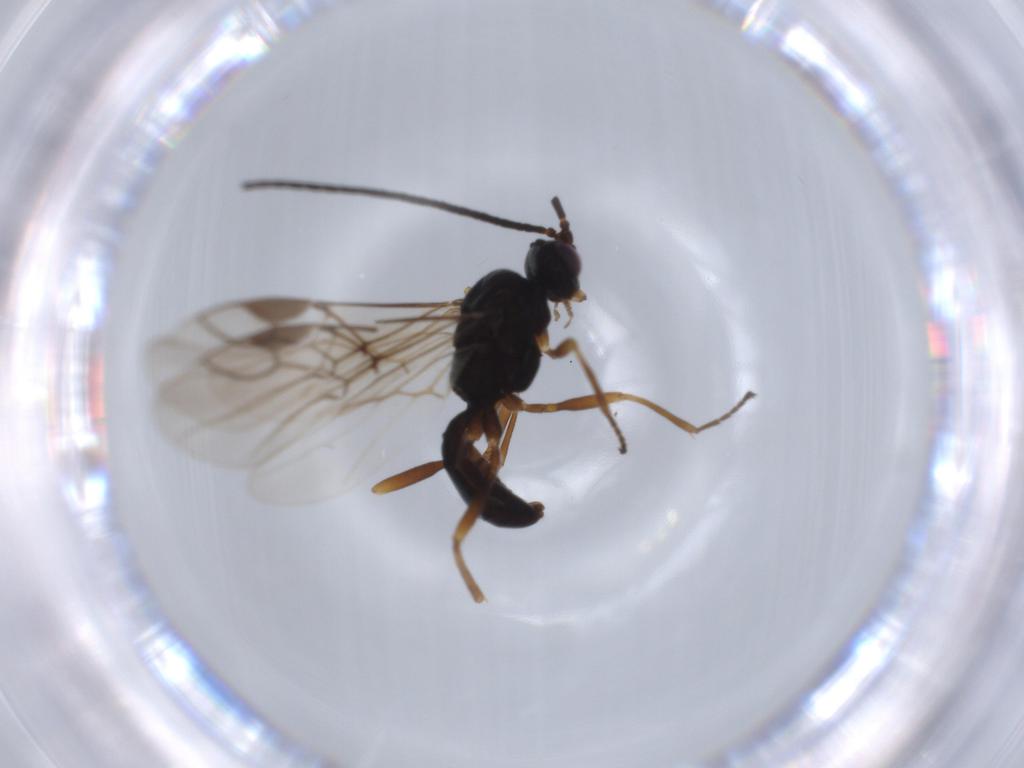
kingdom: Animalia
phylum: Arthropoda
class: Insecta
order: Hymenoptera
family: Braconidae
